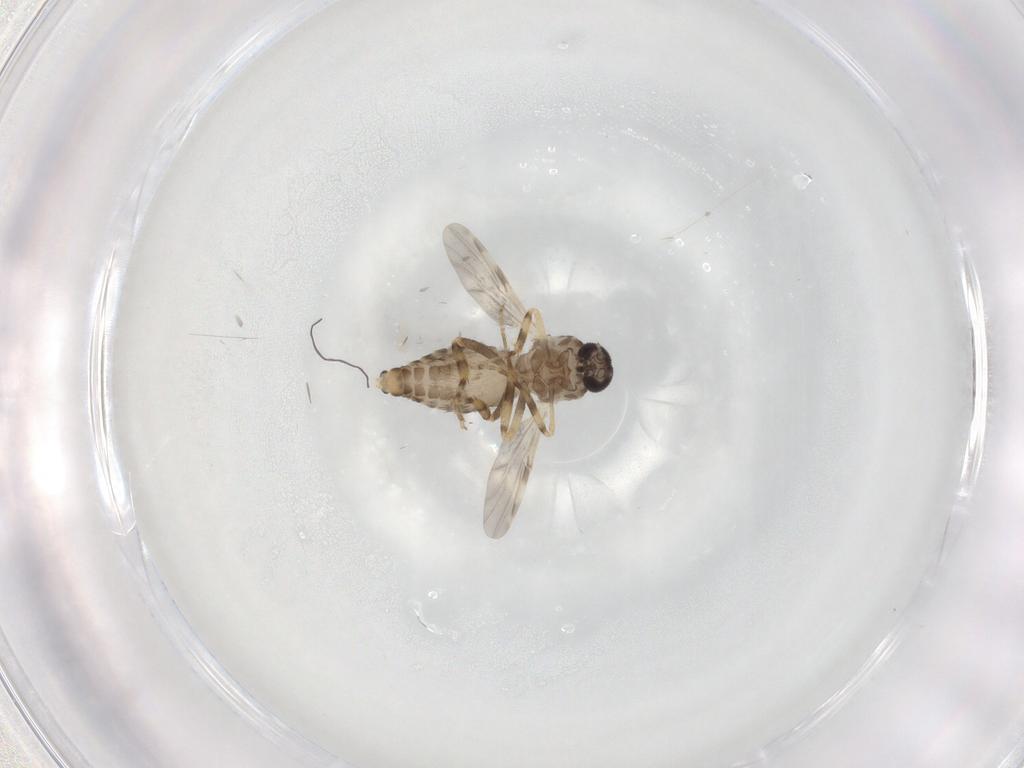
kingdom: Animalia
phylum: Arthropoda
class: Insecta
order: Diptera
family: Ceratopogonidae
